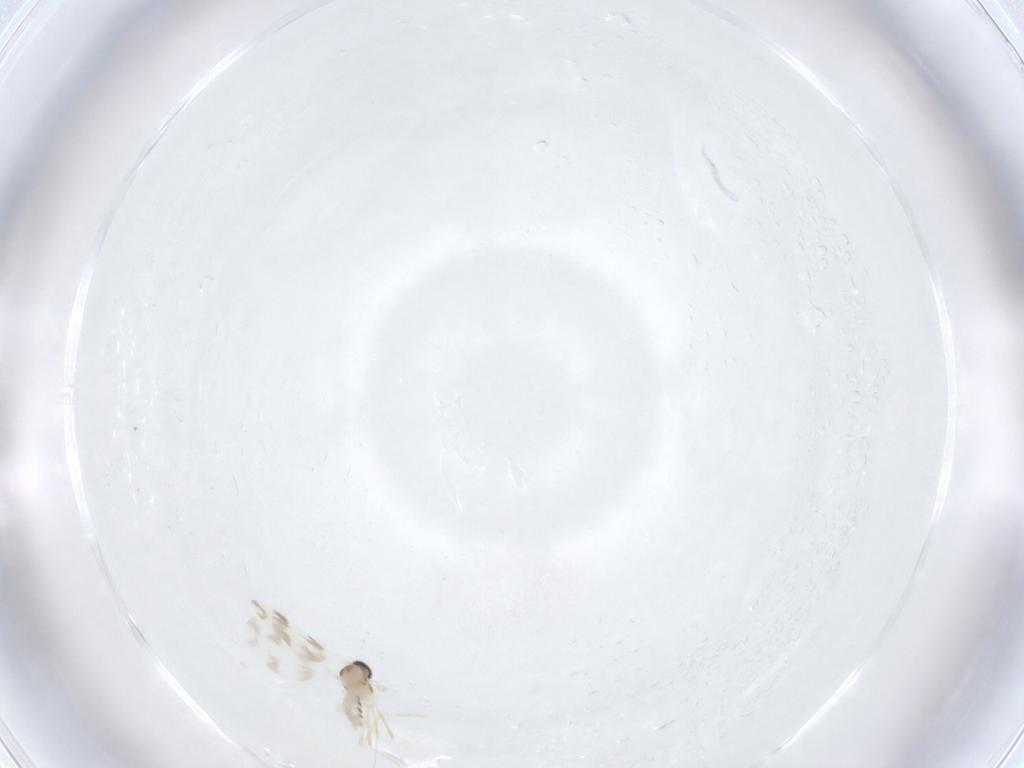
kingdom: Animalia
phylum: Arthropoda
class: Insecta
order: Diptera
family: Cecidomyiidae
